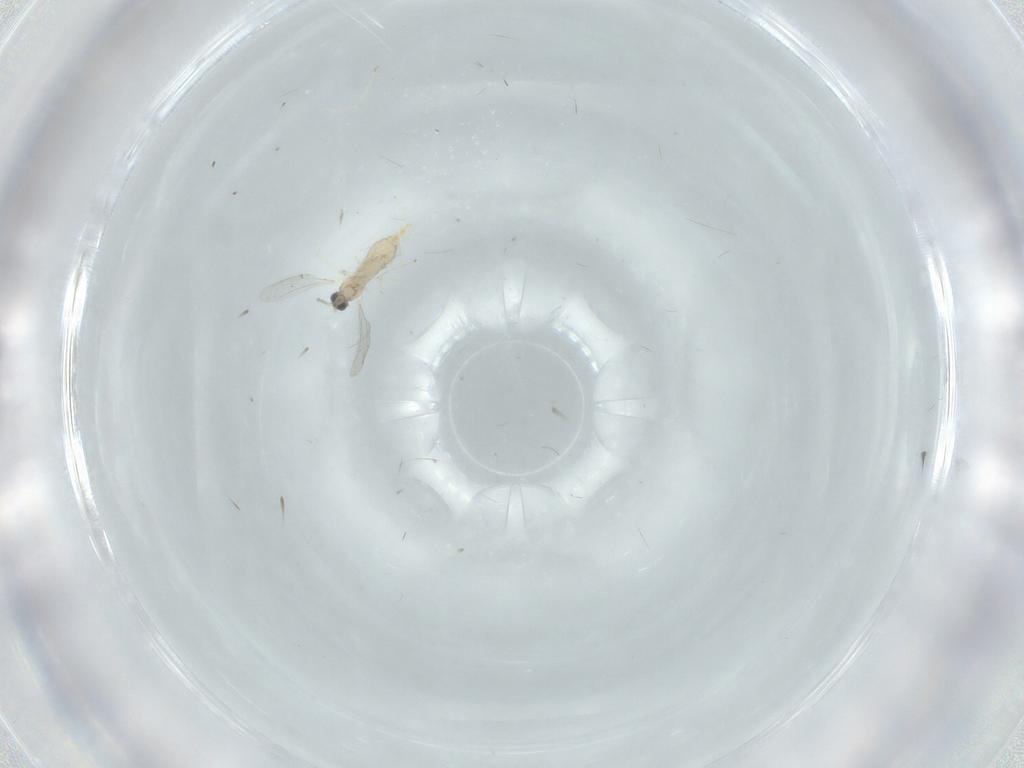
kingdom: Animalia
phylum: Arthropoda
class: Insecta
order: Diptera
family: Cecidomyiidae
